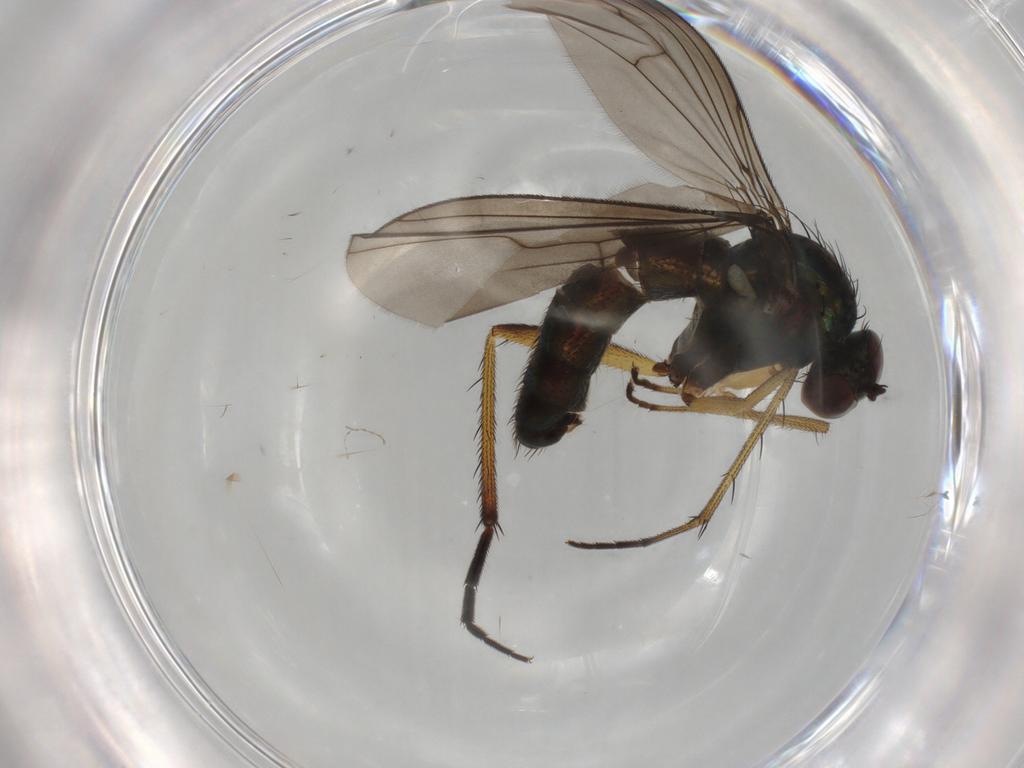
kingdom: Animalia
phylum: Arthropoda
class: Insecta
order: Diptera
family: Dolichopodidae
